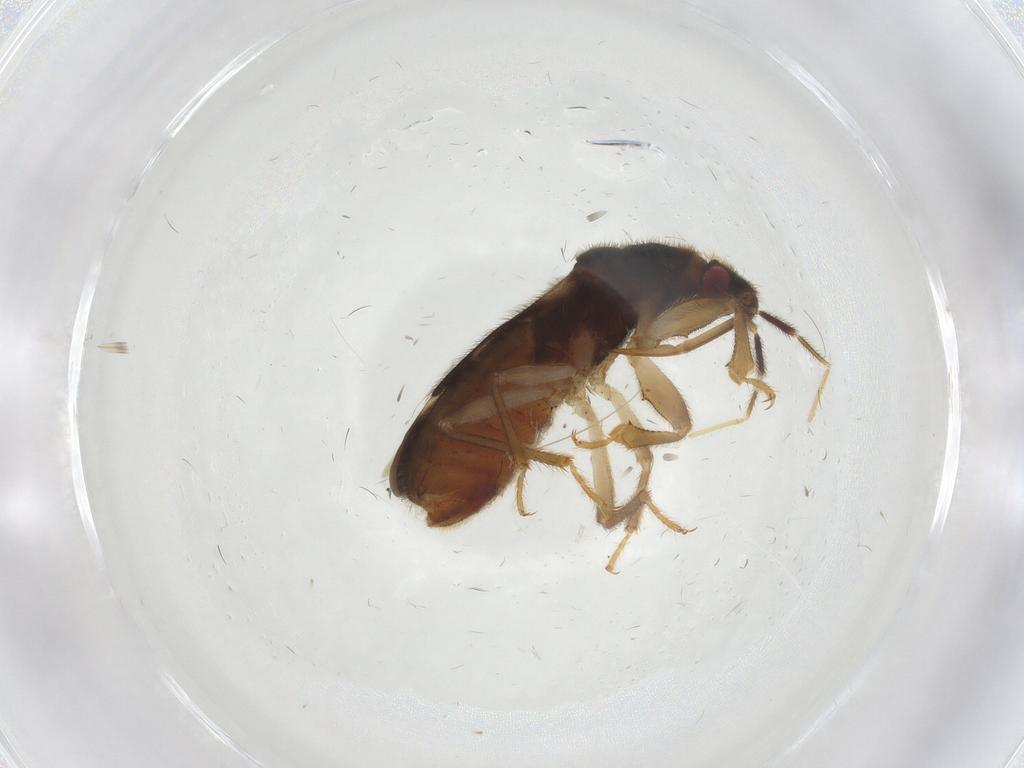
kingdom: Animalia
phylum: Arthropoda
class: Insecta
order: Hemiptera
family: Nabidae
